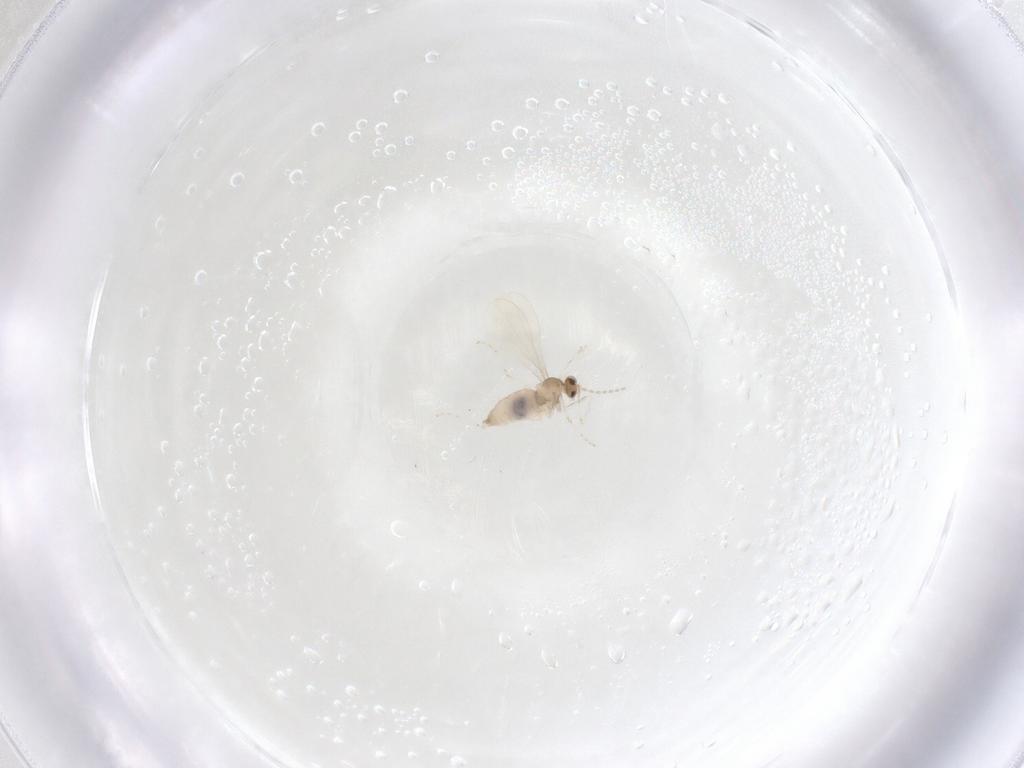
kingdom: Animalia
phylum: Arthropoda
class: Insecta
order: Diptera
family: Cecidomyiidae
